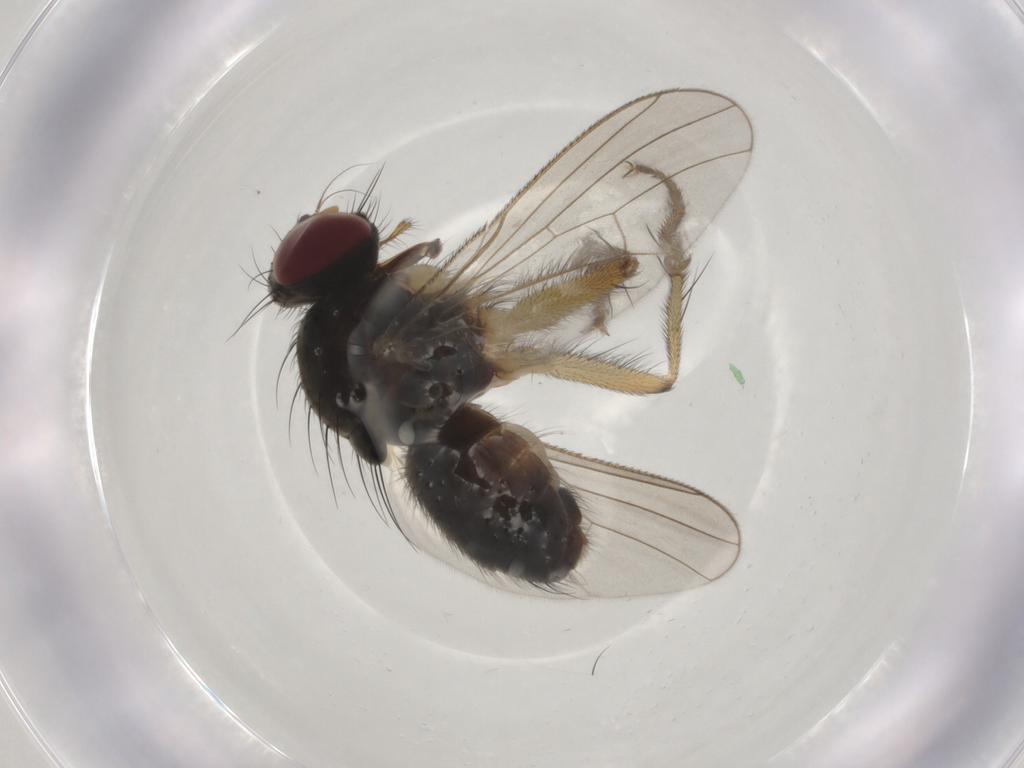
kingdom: Animalia
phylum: Arthropoda
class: Insecta
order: Diptera
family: Muscidae
